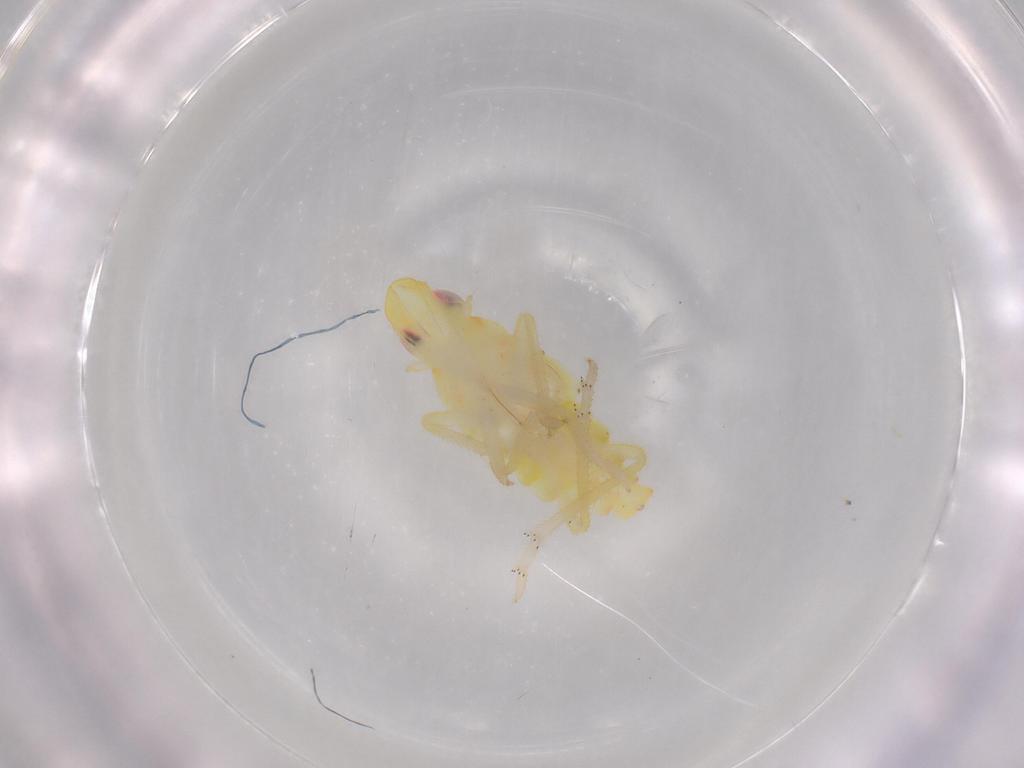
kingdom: Animalia
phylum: Arthropoda
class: Insecta
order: Hemiptera
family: Tropiduchidae
